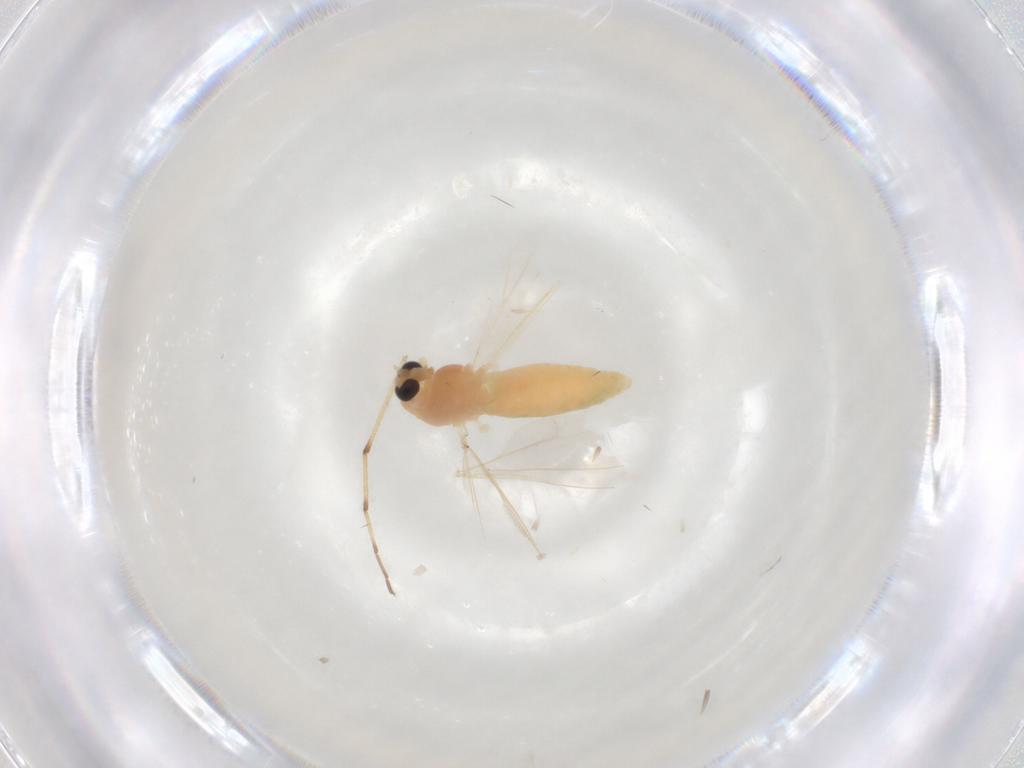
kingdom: Animalia
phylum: Arthropoda
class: Insecta
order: Diptera
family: Chironomidae
